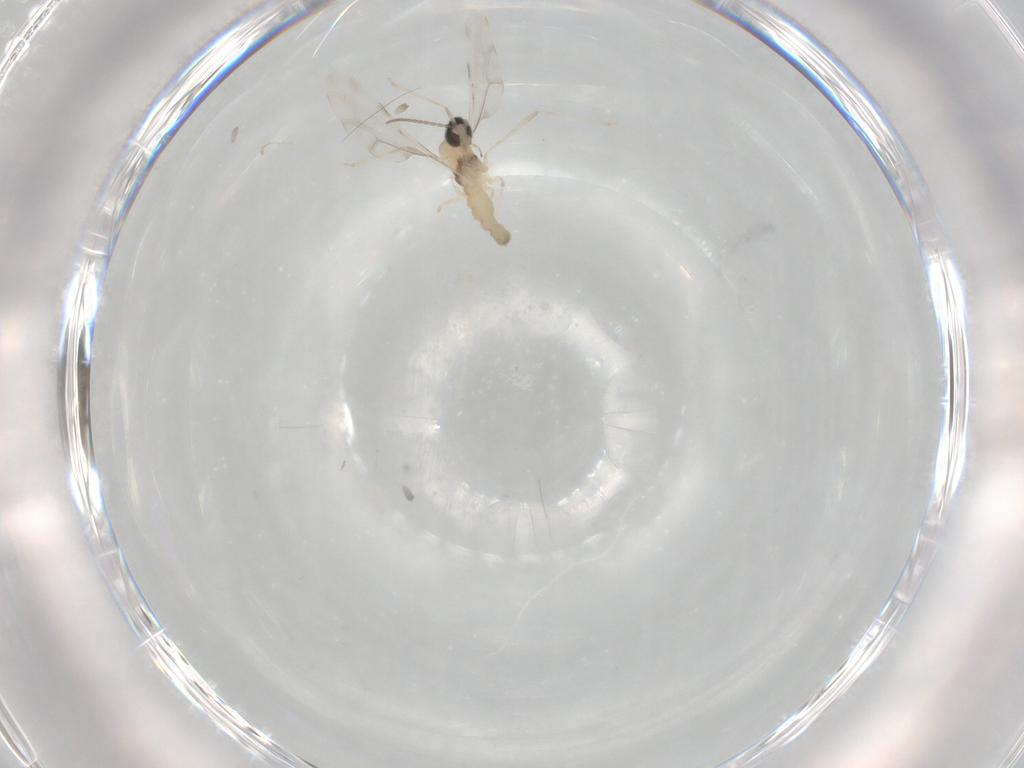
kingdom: Animalia
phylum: Arthropoda
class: Insecta
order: Diptera
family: Cecidomyiidae
